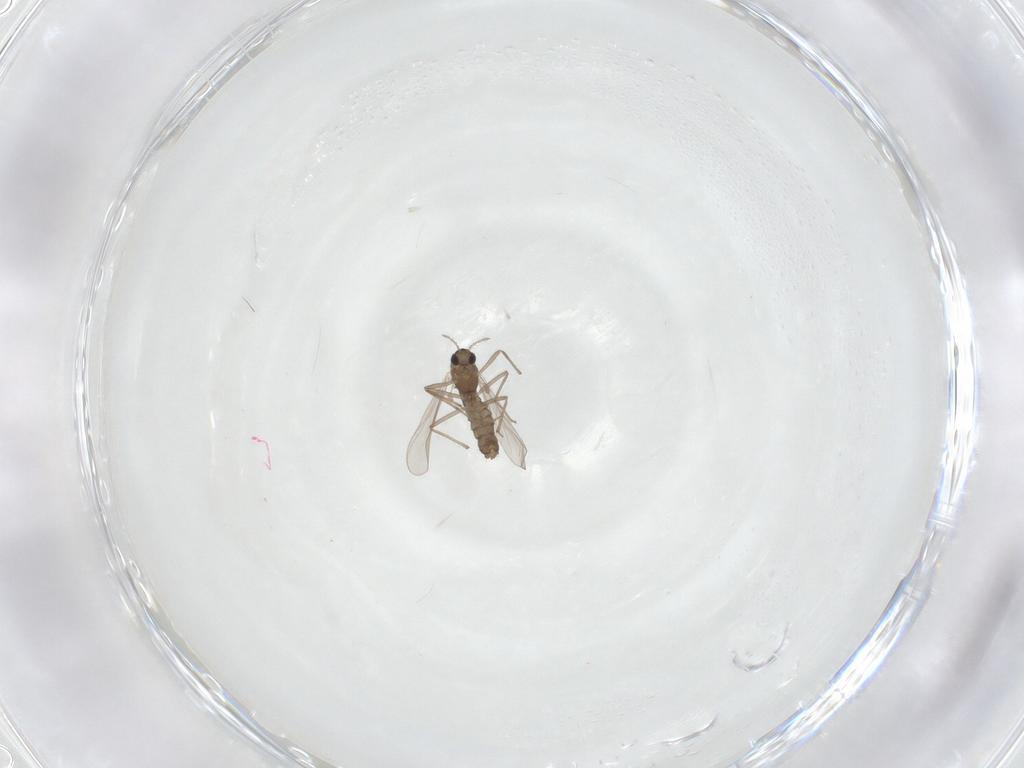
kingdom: Animalia
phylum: Arthropoda
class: Insecta
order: Diptera
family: Chironomidae
